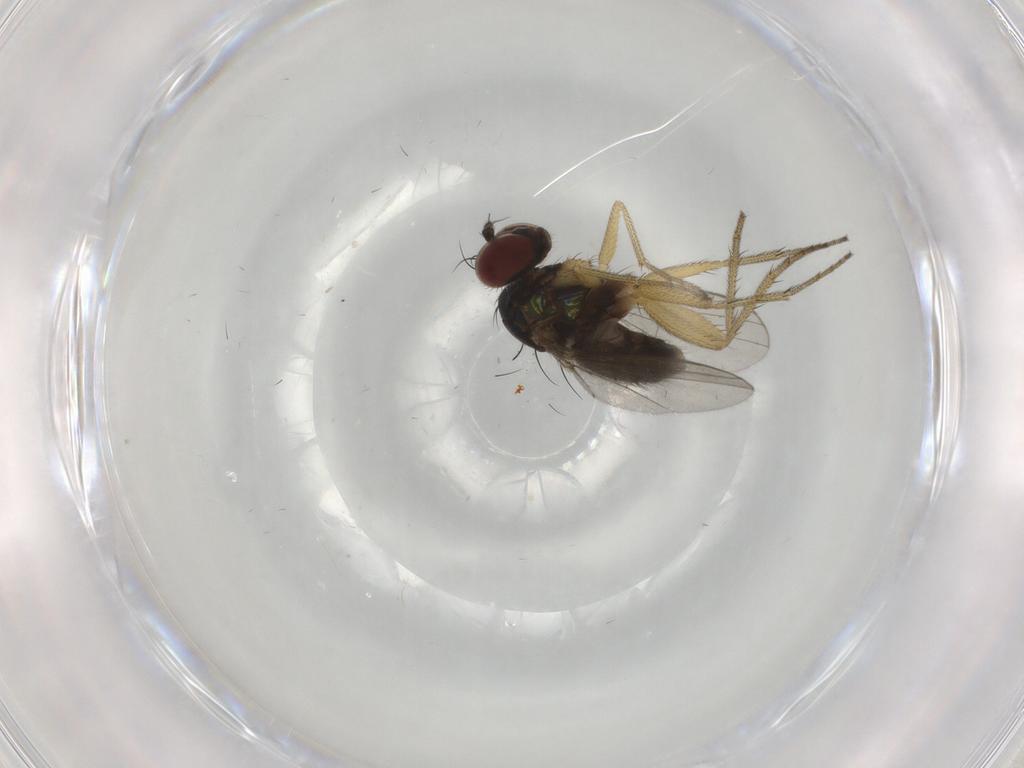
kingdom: Animalia
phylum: Arthropoda
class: Insecta
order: Diptera
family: Dolichopodidae
